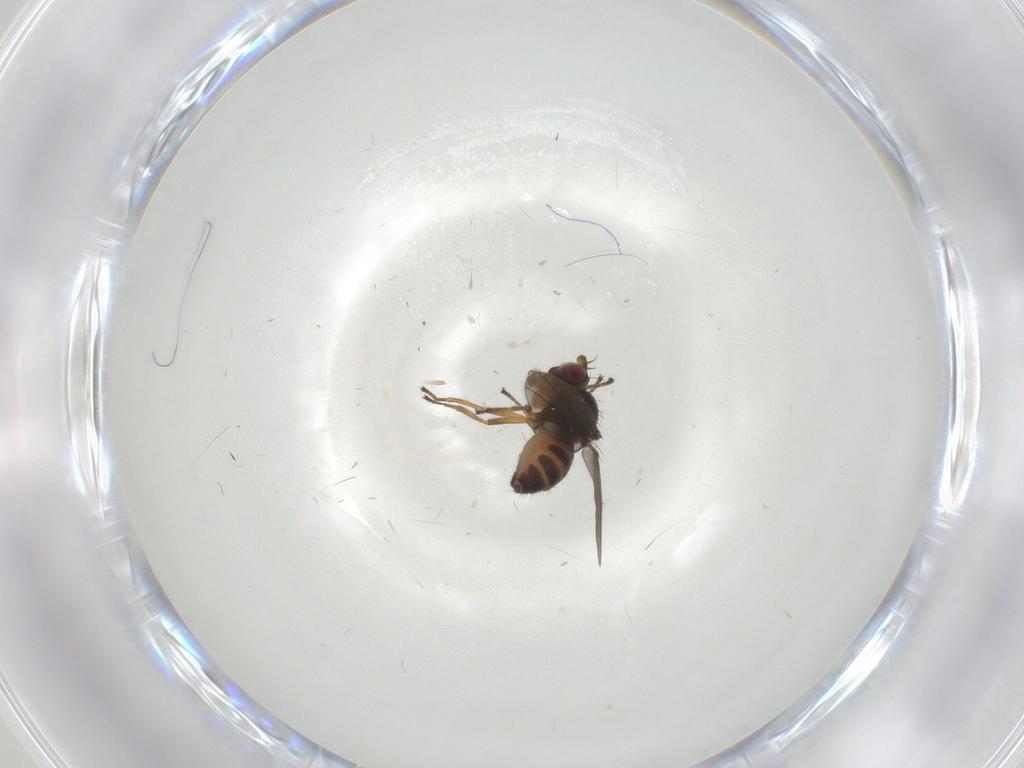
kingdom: Animalia
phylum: Arthropoda
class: Insecta
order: Diptera
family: Ephydridae
